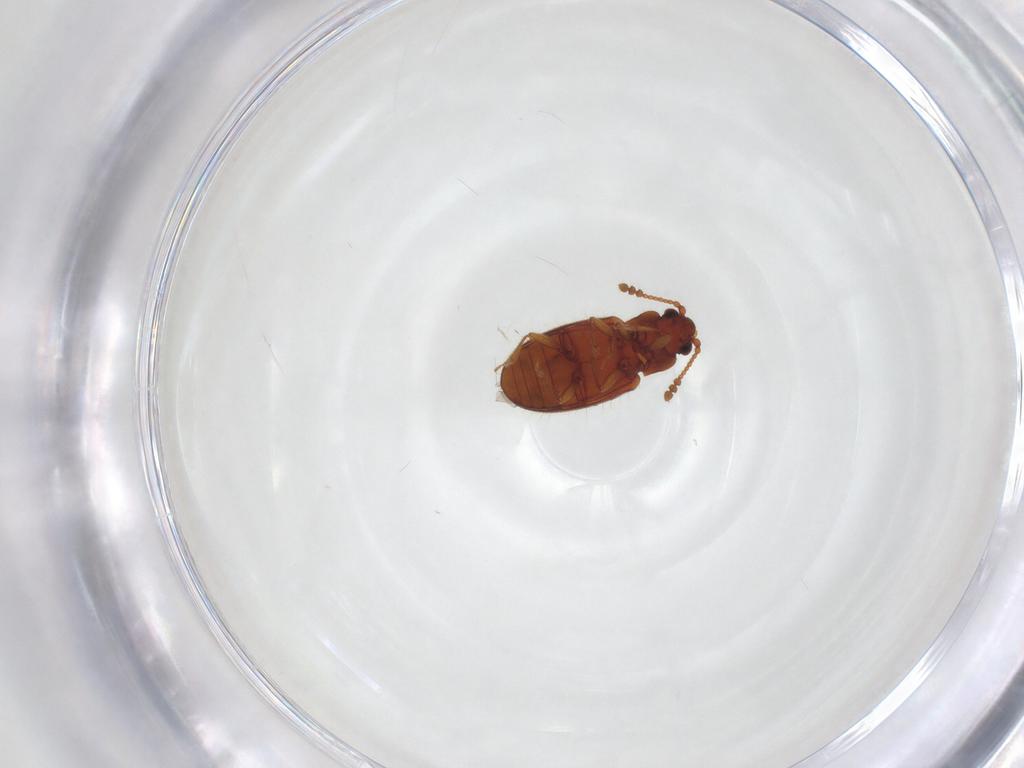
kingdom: Animalia
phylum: Arthropoda
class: Insecta
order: Coleoptera
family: Cryptophagidae
